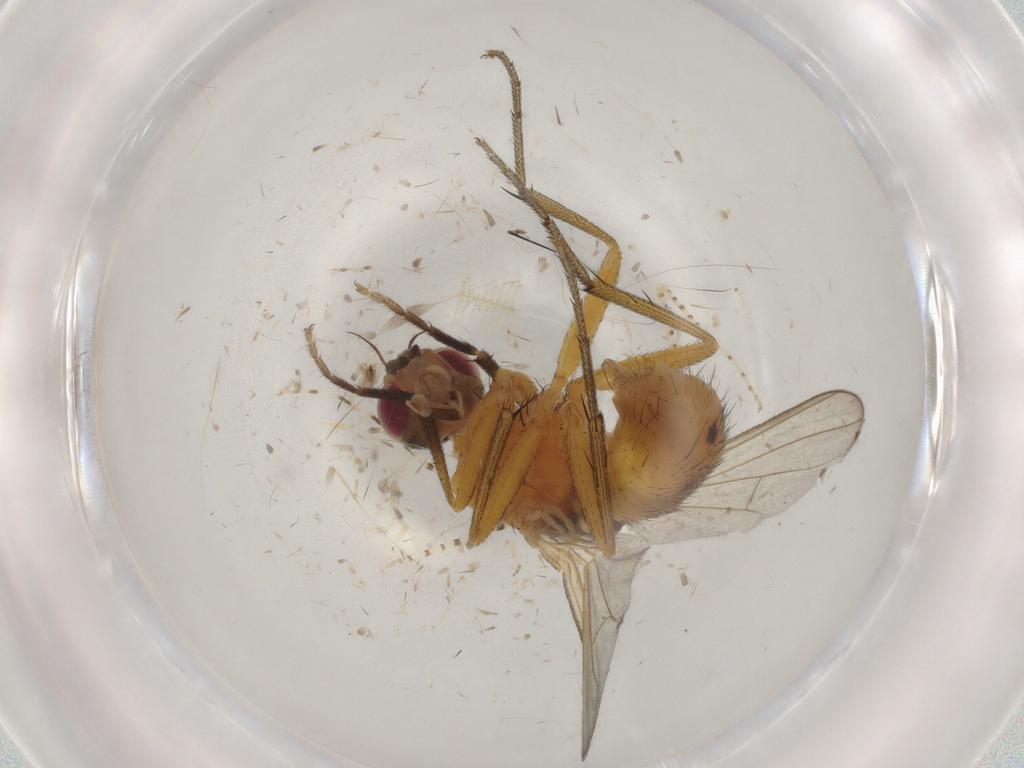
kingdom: Animalia
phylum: Arthropoda
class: Insecta
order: Diptera
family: Muscidae
